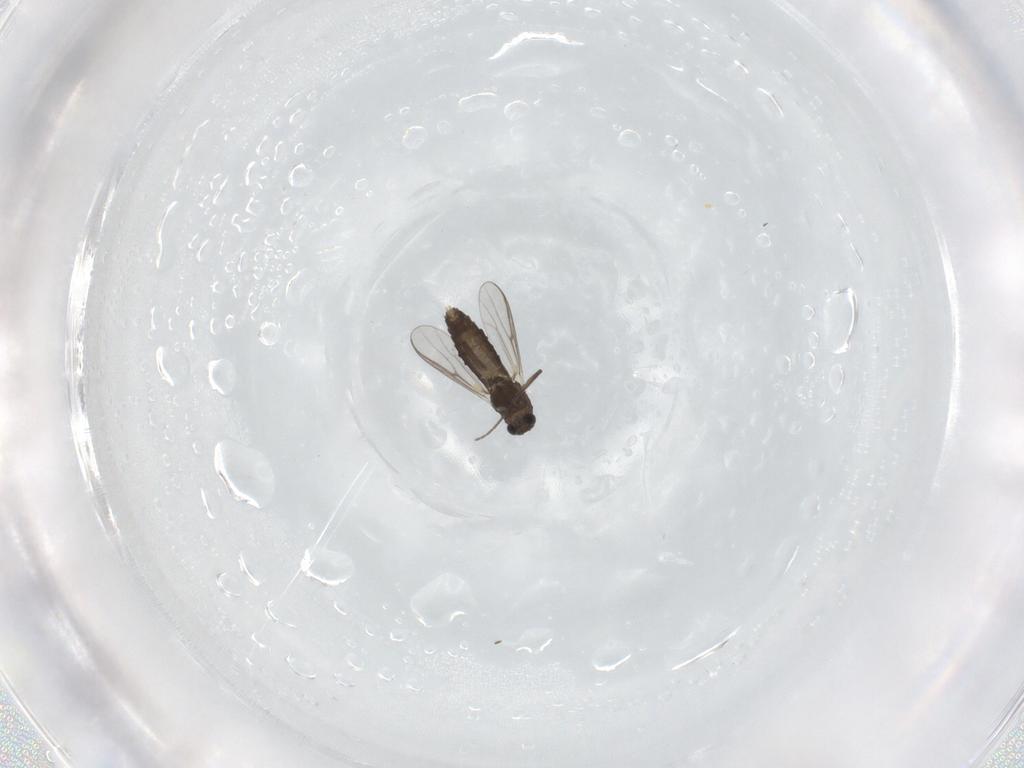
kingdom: Animalia
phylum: Arthropoda
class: Insecta
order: Diptera
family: Chironomidae
